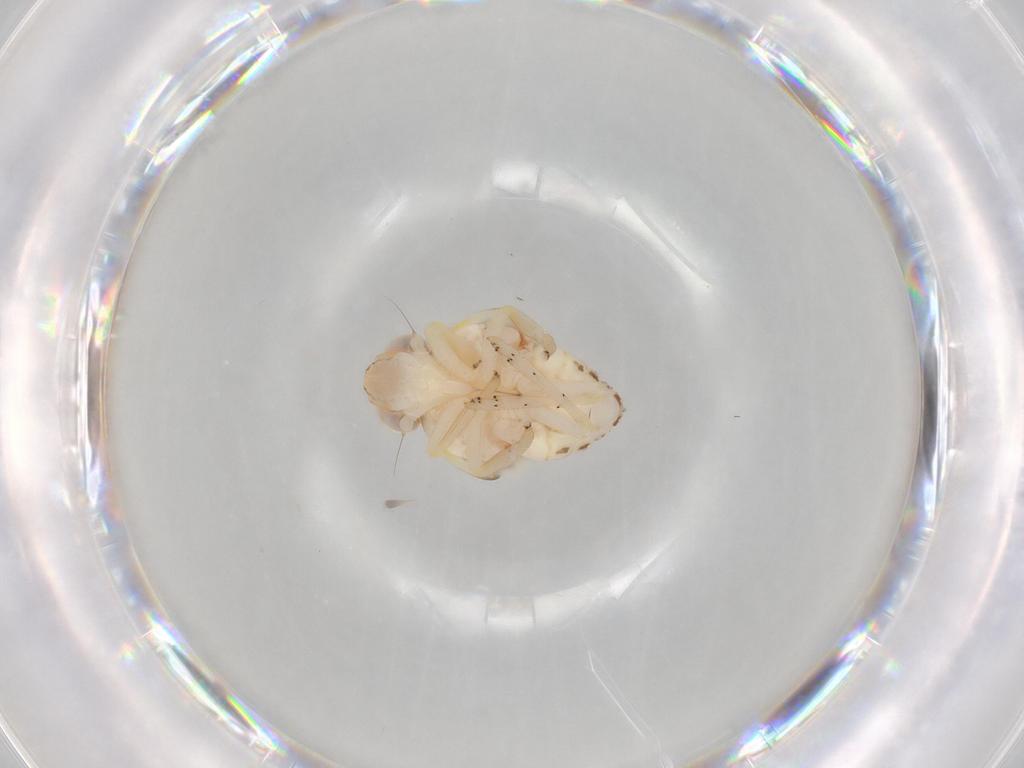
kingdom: Animalia
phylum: Arthropoda
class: Insecta
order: Hemiptera
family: Nogodinidae
